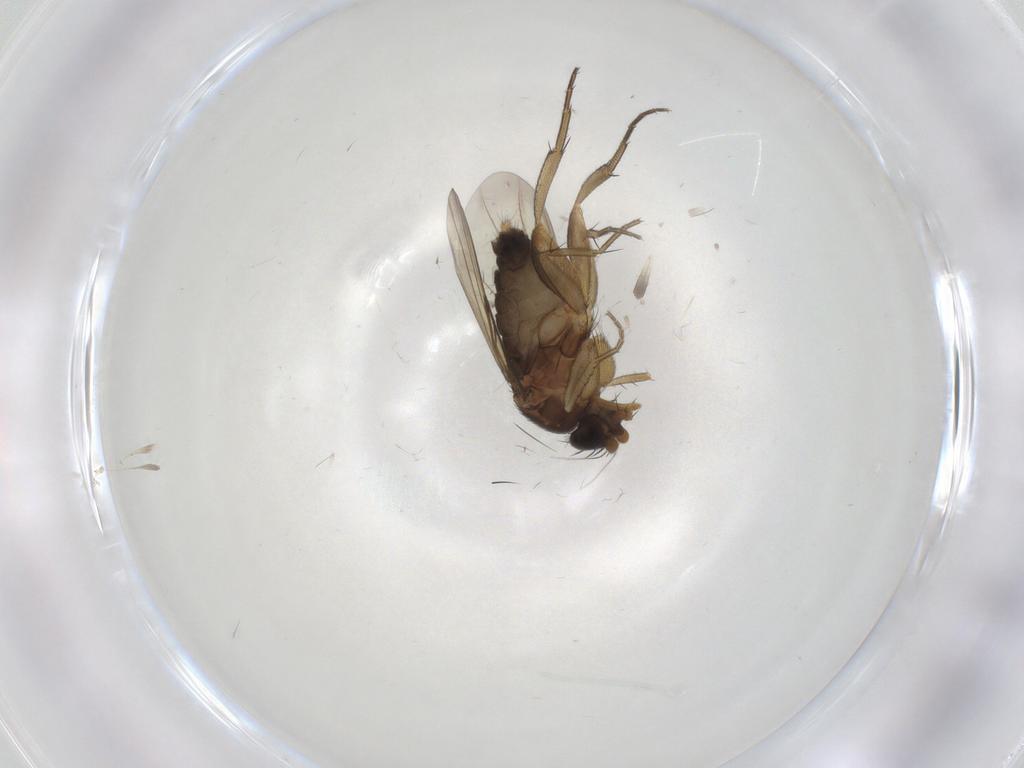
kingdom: Animalia
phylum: Arthropoda
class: Insecta
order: Diptera
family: Phoridae
